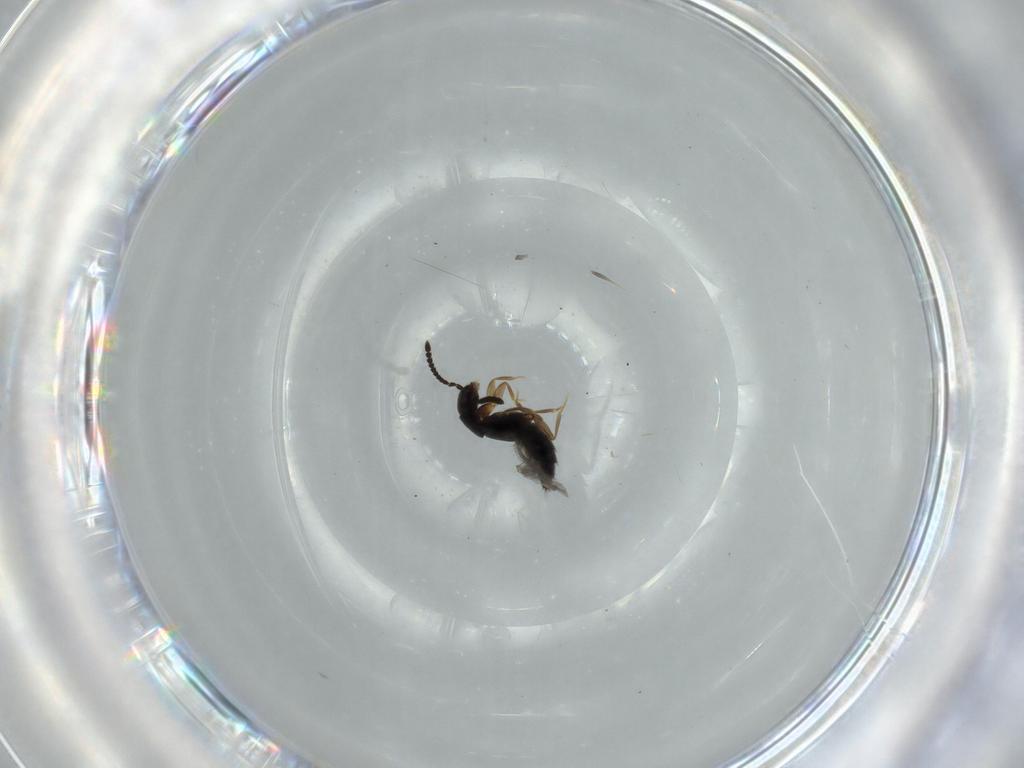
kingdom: Animalia
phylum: Arthropoda
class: Insecta
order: Coleoptera
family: Staphylinidae
